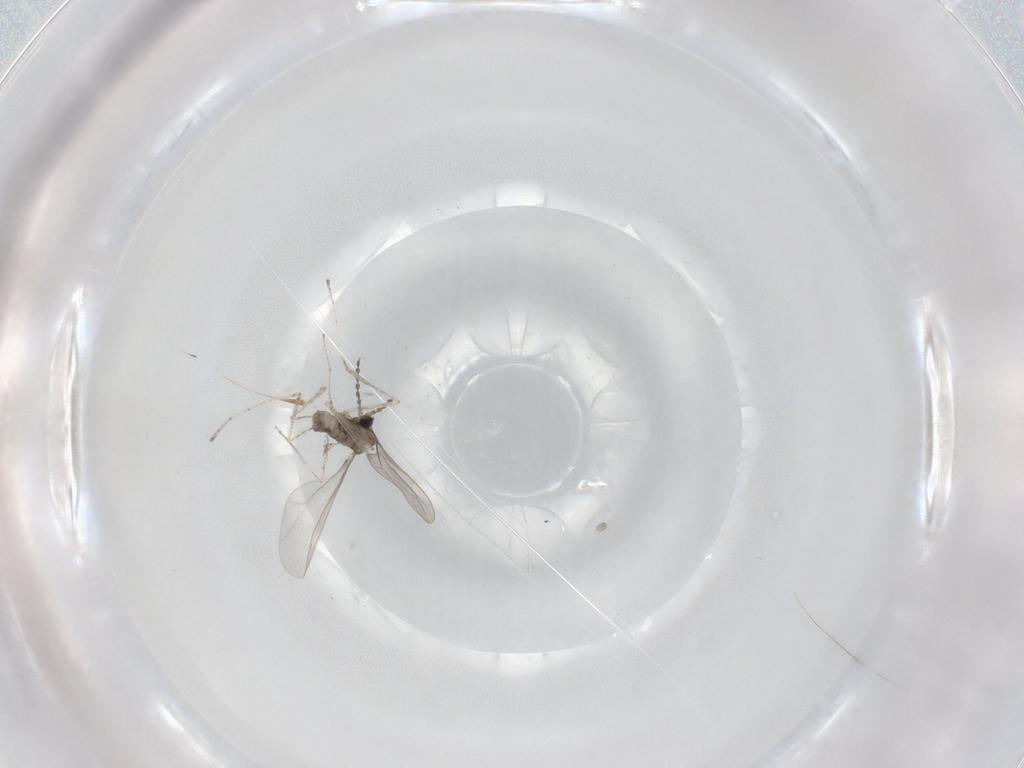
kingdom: Animalia
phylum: Arthropoda
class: Insecta
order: Diptera
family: Cecidomyiidae
